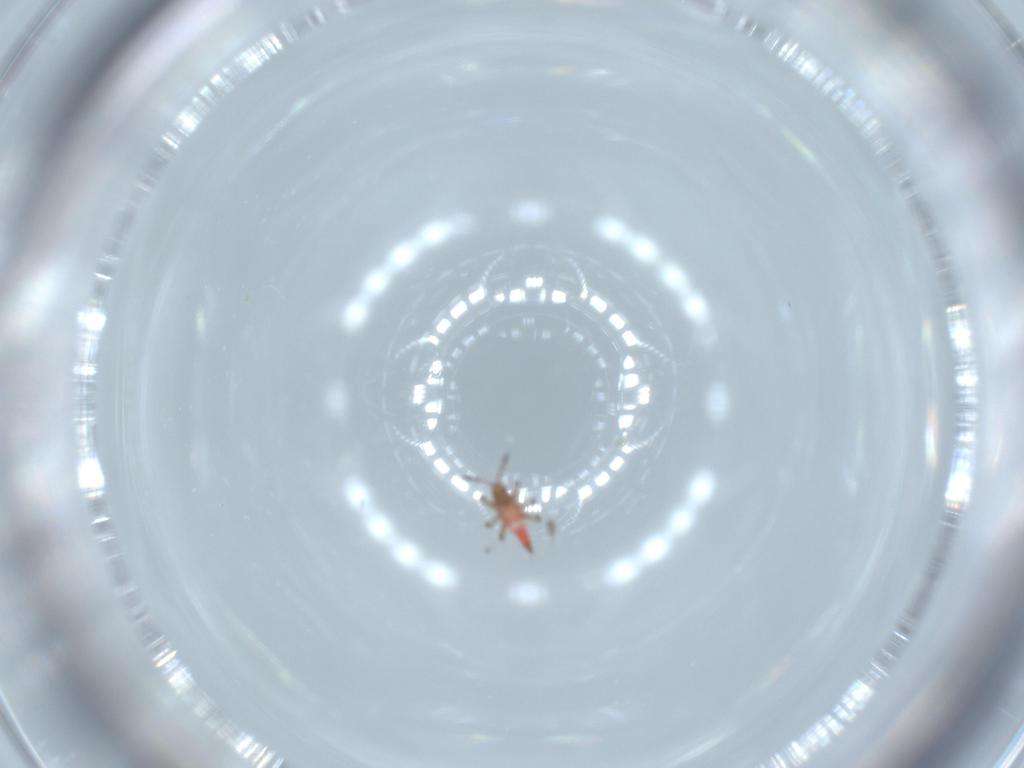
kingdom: Animalia
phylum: Arthropoda
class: Insecta
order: Thysanoptera
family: Phlaeothripidae
